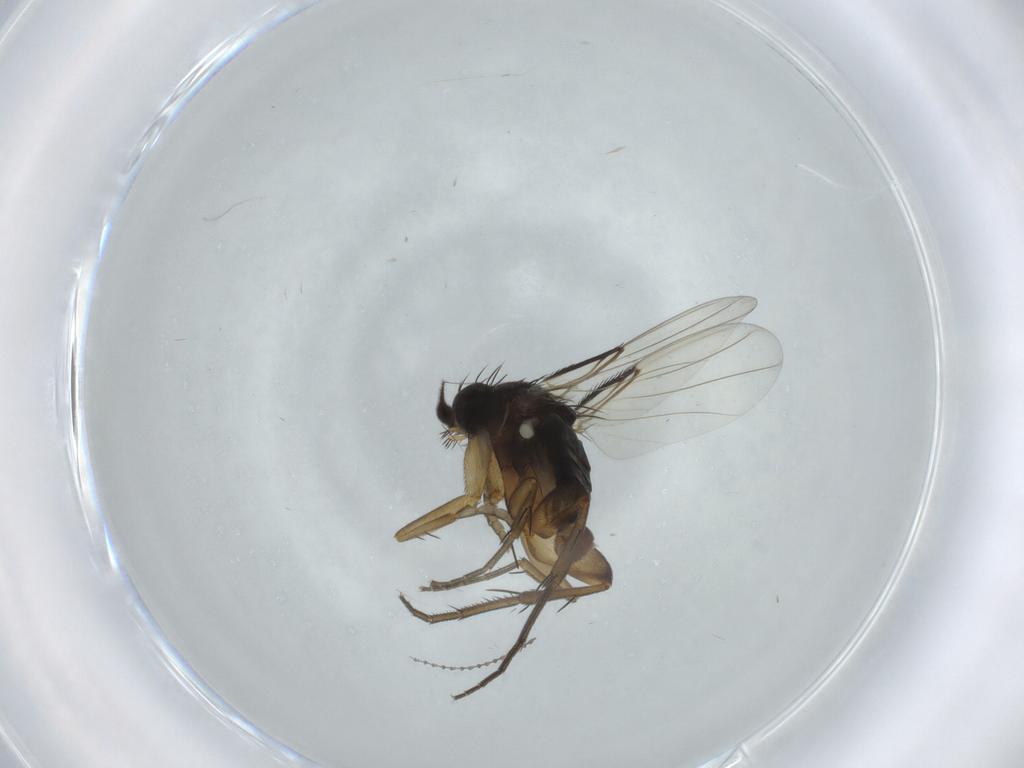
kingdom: Animalia
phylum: Arthropoda
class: Insecta
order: Diptera
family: Phoridae
